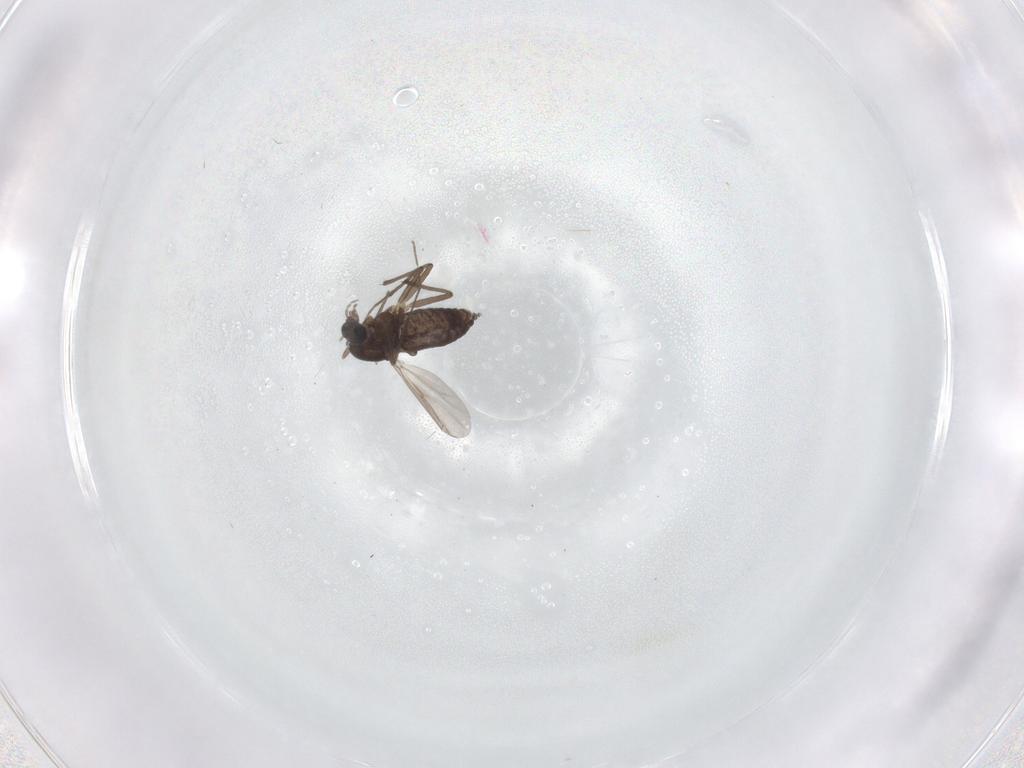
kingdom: Animalia
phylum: Arthropoda
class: Insecta
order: Diptera
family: Chironomidae
